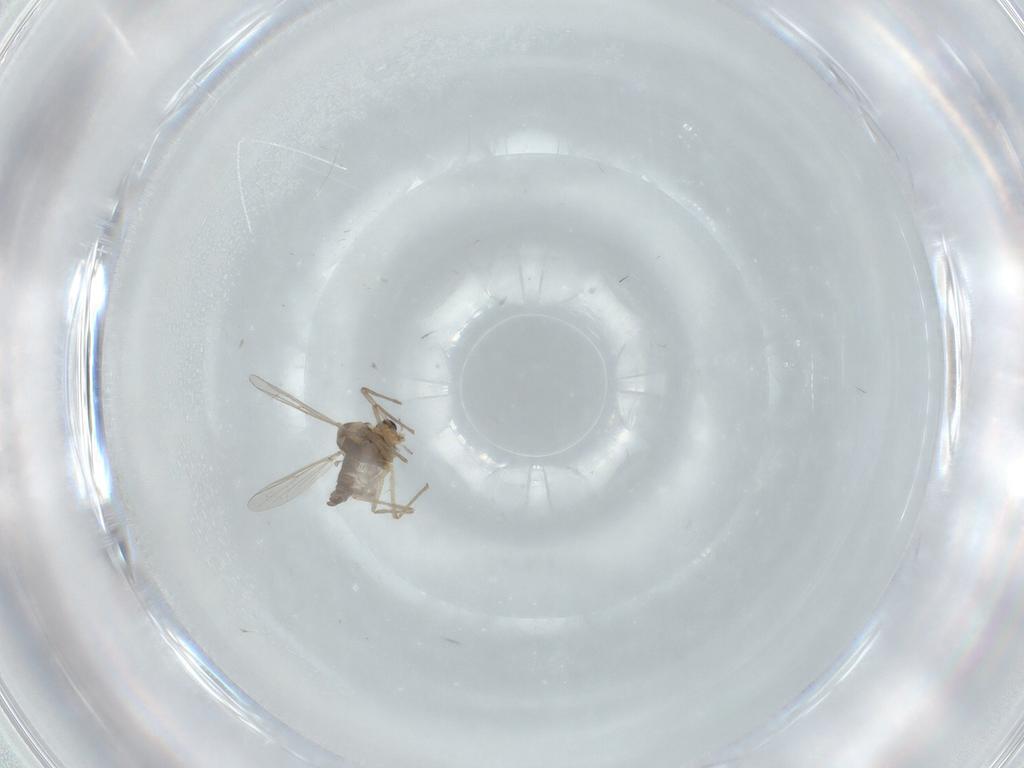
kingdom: Animalia
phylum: Arthropoda
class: Insecta
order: Diptera
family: Chironomidae
